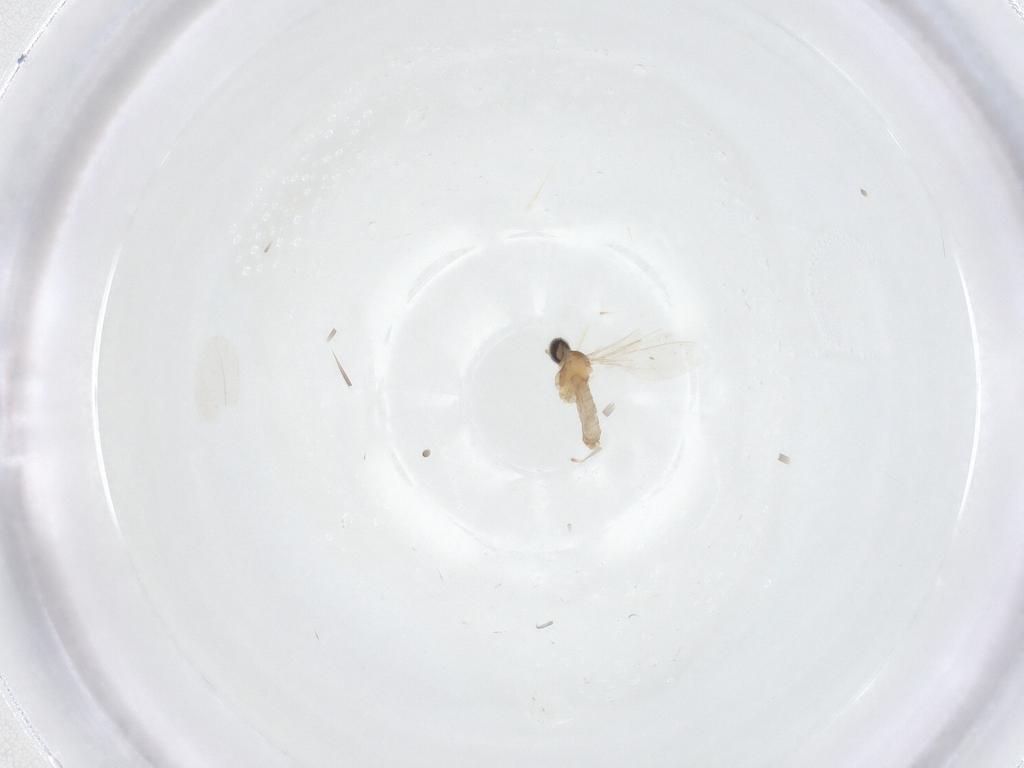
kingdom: Animalia
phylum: Arthropoda
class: Insecta
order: Diptera
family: Cecidomyiidae
